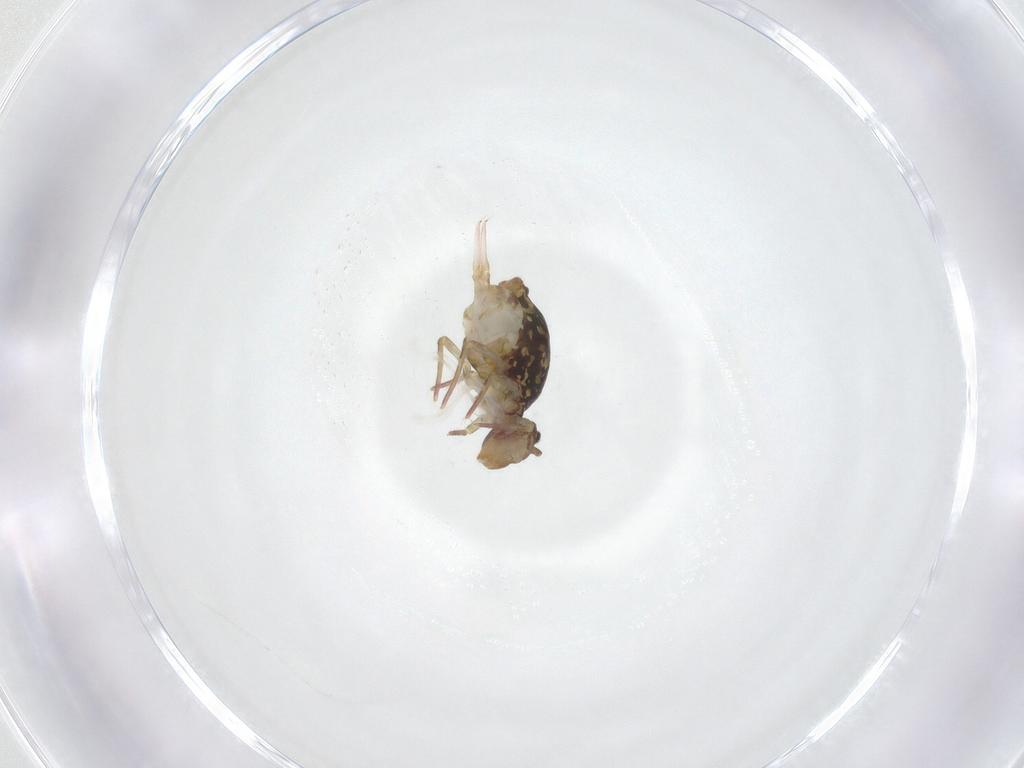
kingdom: Animalia
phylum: Arthropoda
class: Collembola
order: Symphypleona
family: Dicyrtomidae
